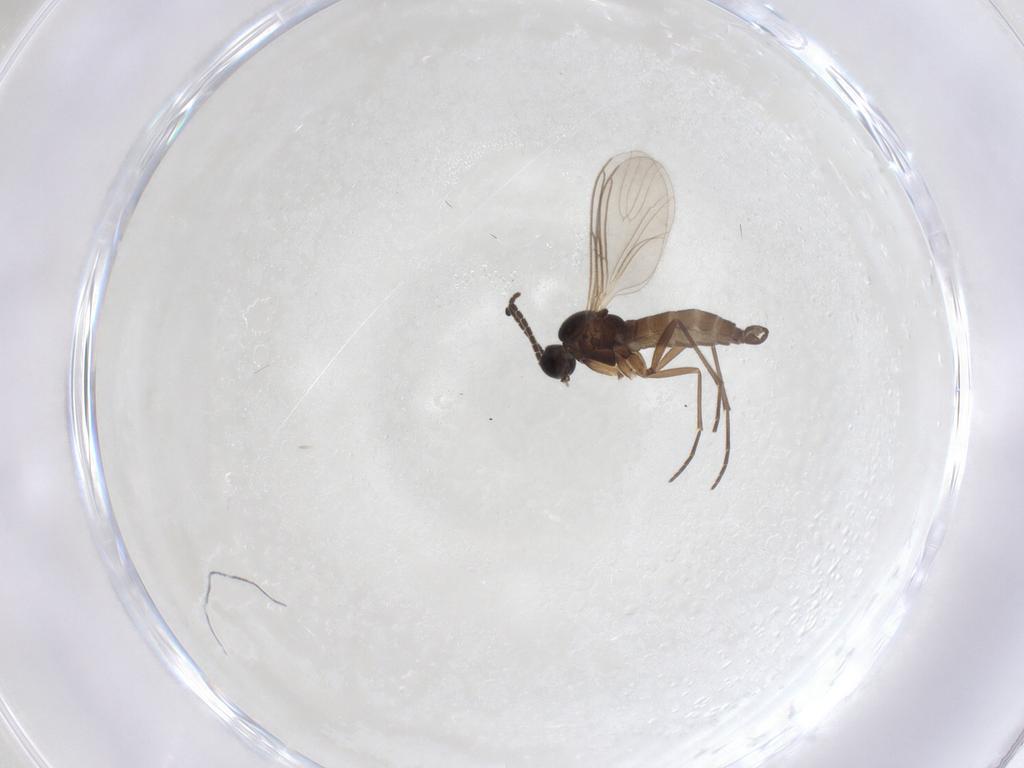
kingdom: Animalia
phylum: Arthropoda
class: Insecta
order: Diptera
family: Sciaridae
